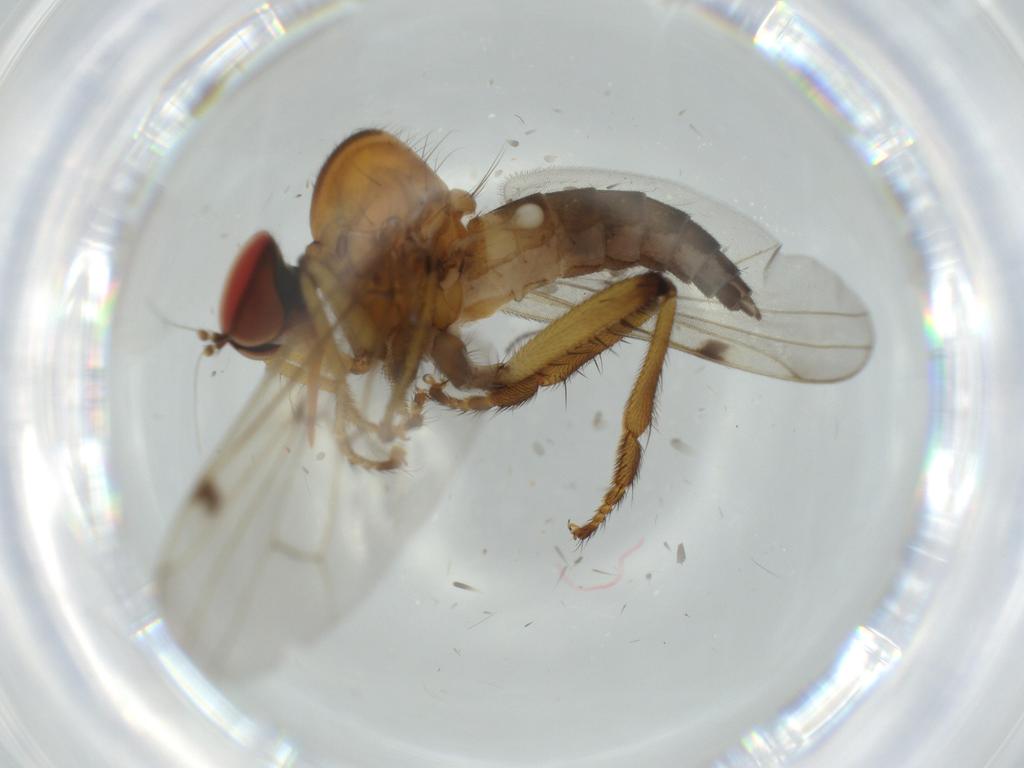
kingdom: Animalia
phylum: Arthropoda
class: Insecta
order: Diptera
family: Hybotidae
